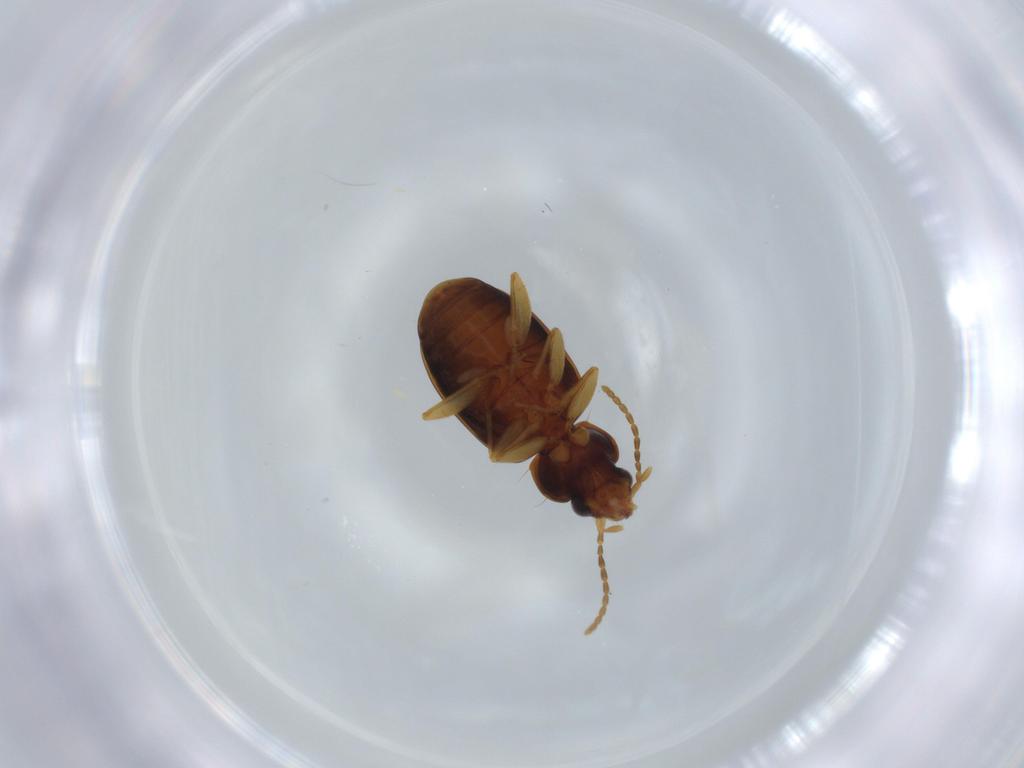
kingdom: Animalia
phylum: Arthropoda
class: Insecta
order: Coleoptera
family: Carabidae
